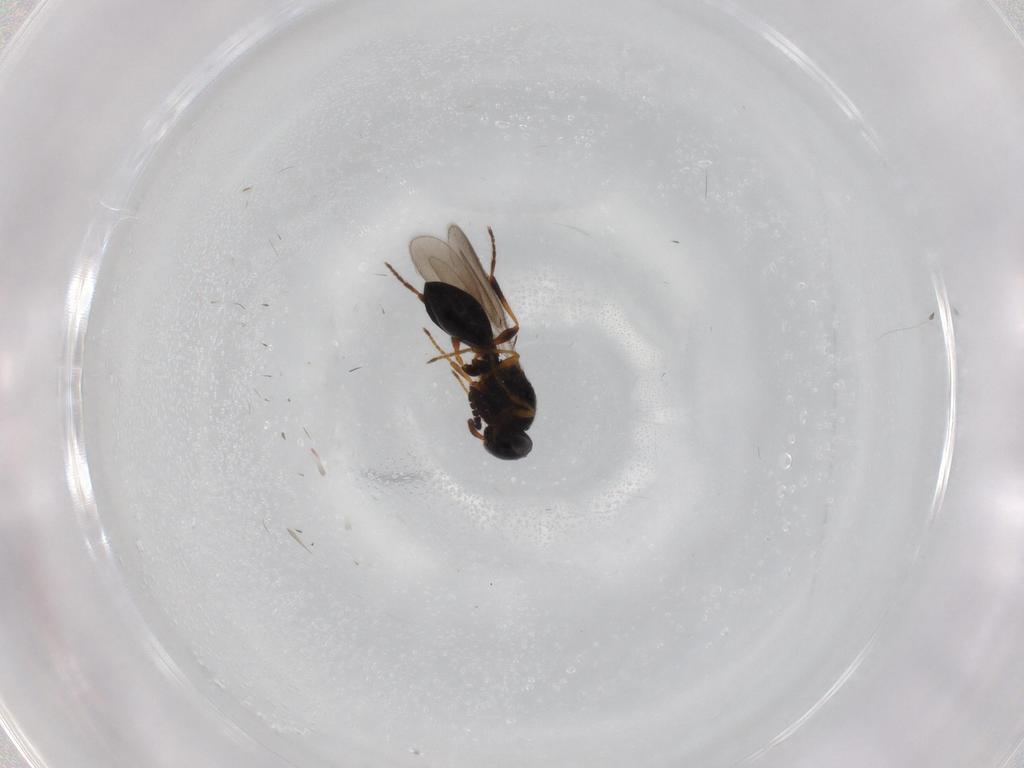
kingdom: Animalia
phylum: Arthropoda
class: Insecta
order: Hymenoptera
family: Platygastridae
